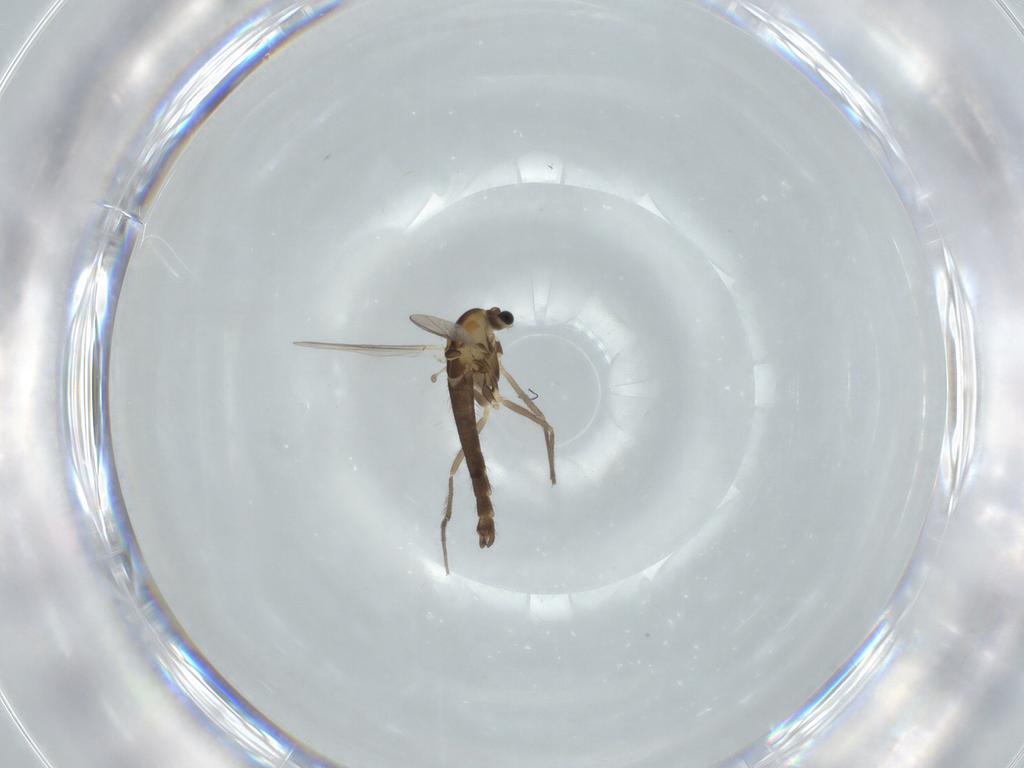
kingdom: Animalia
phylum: Arthropoda
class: Insecta
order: Diptera
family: Chironomidae
